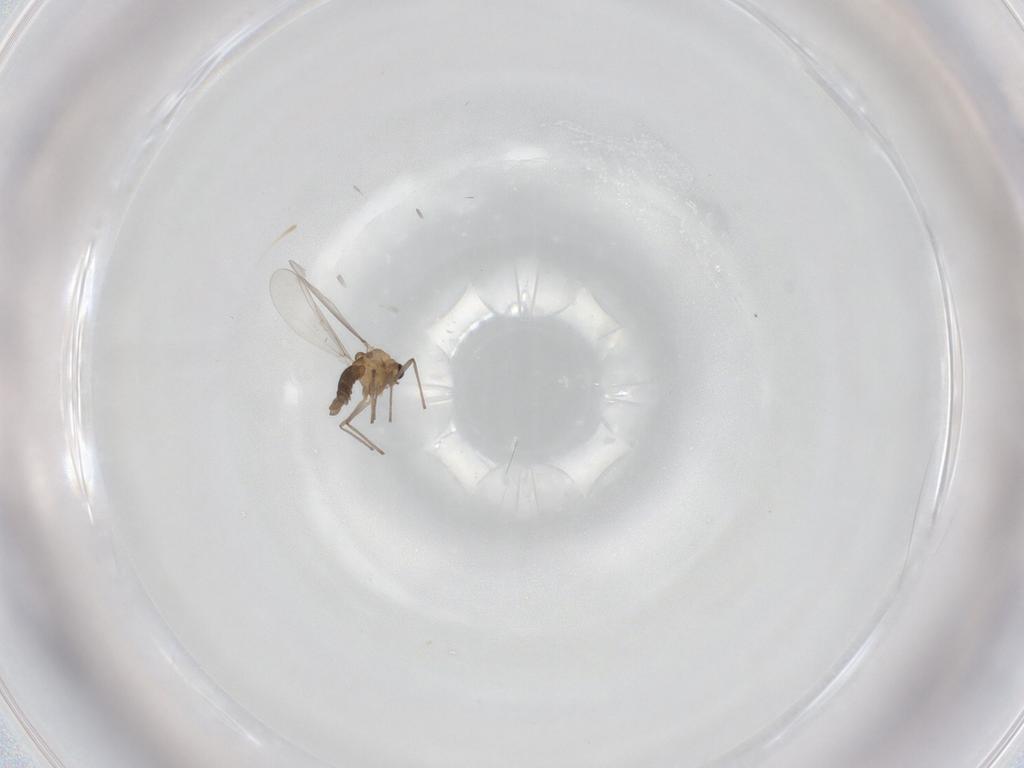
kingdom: Animalia
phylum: Arthropoda
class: Insecta
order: Diptera
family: Chironomidae
